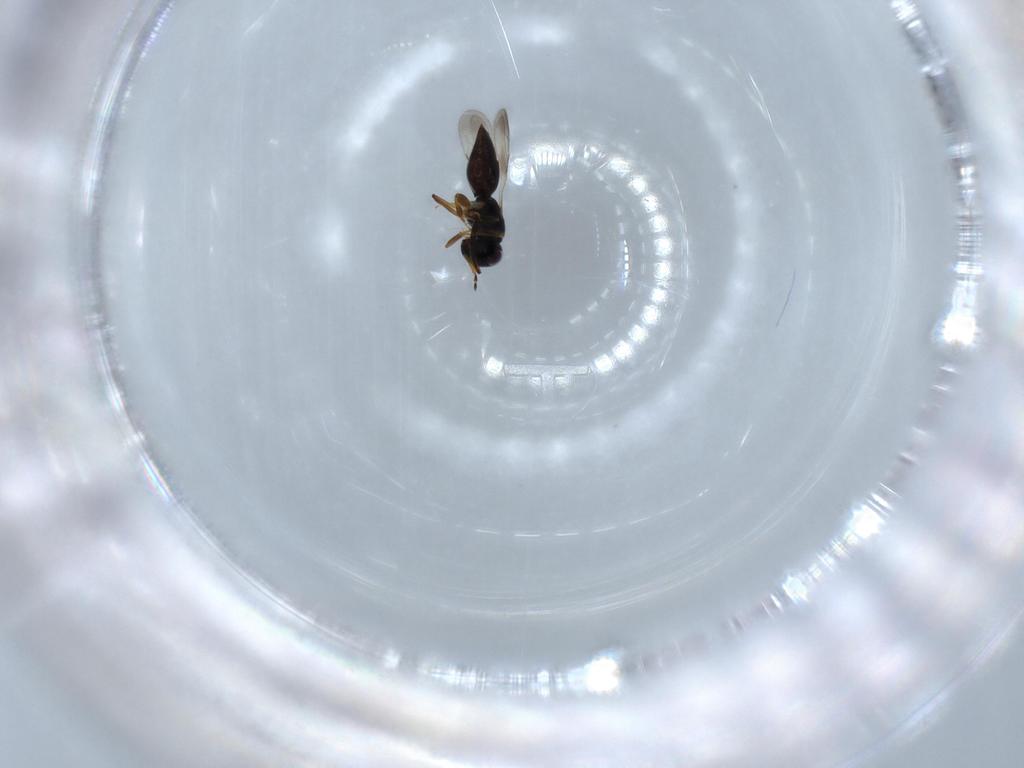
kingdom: Animalia
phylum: Arthropoda
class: Insecta
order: Hymenoptera
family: Ceraphronidae
